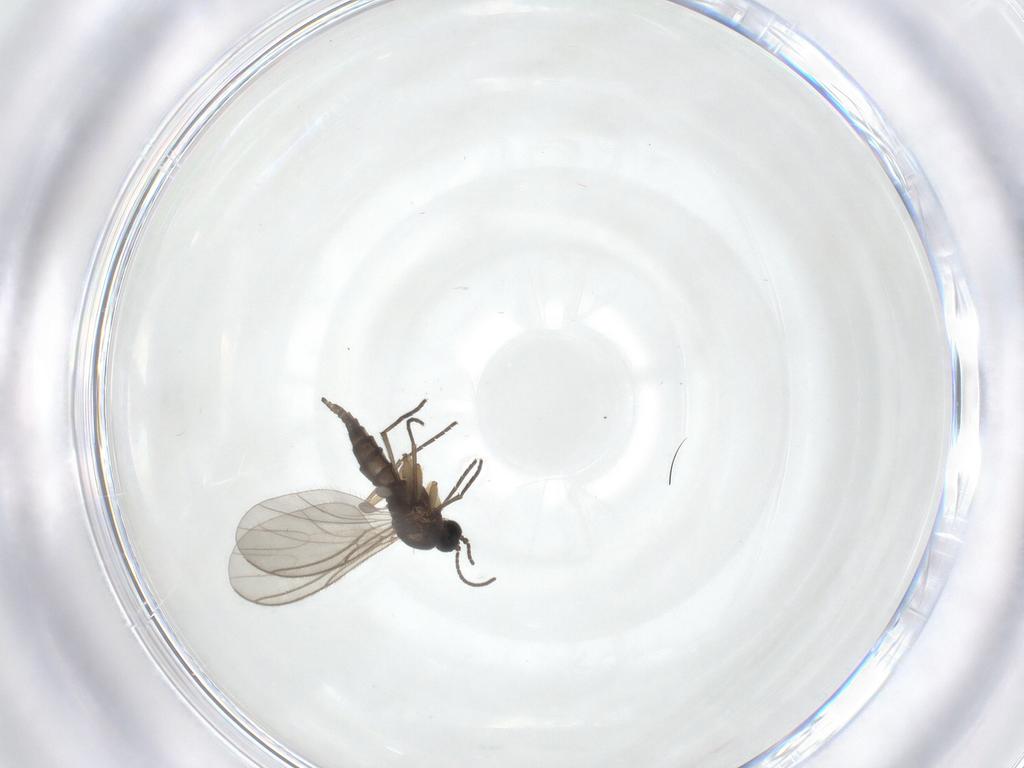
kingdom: Animalia
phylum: Arthropoda
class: Insecta
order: Diptera
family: Sciaridae
